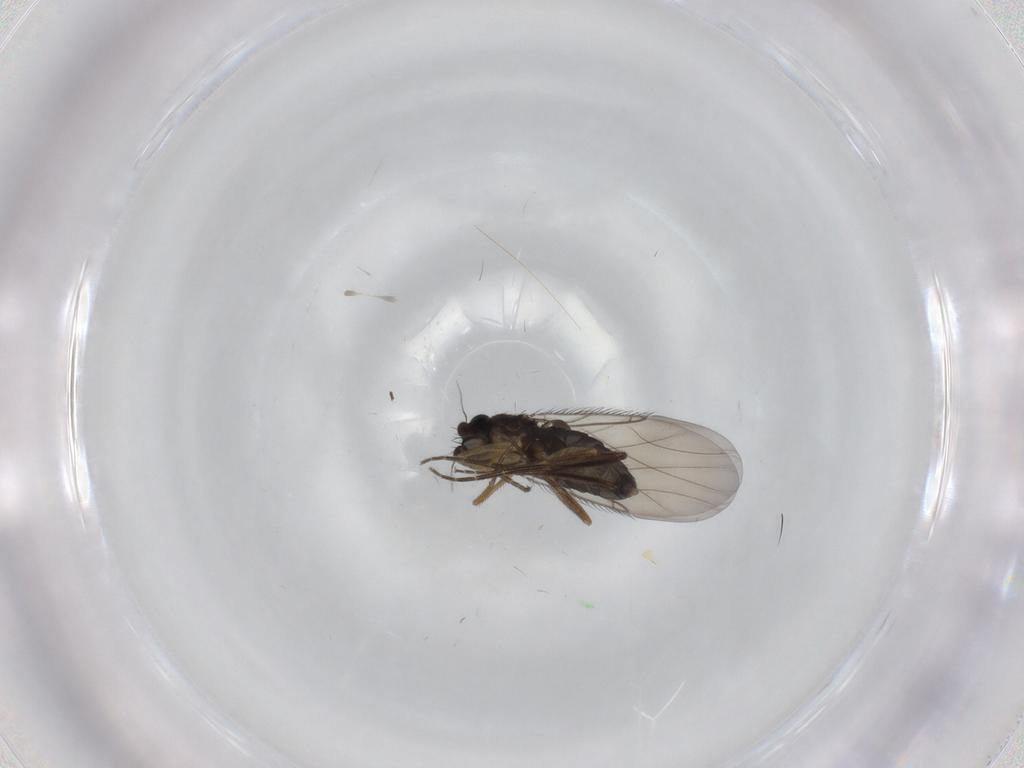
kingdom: Animalia
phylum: Arthropoda
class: Insecta
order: Diptera
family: Phoridae
